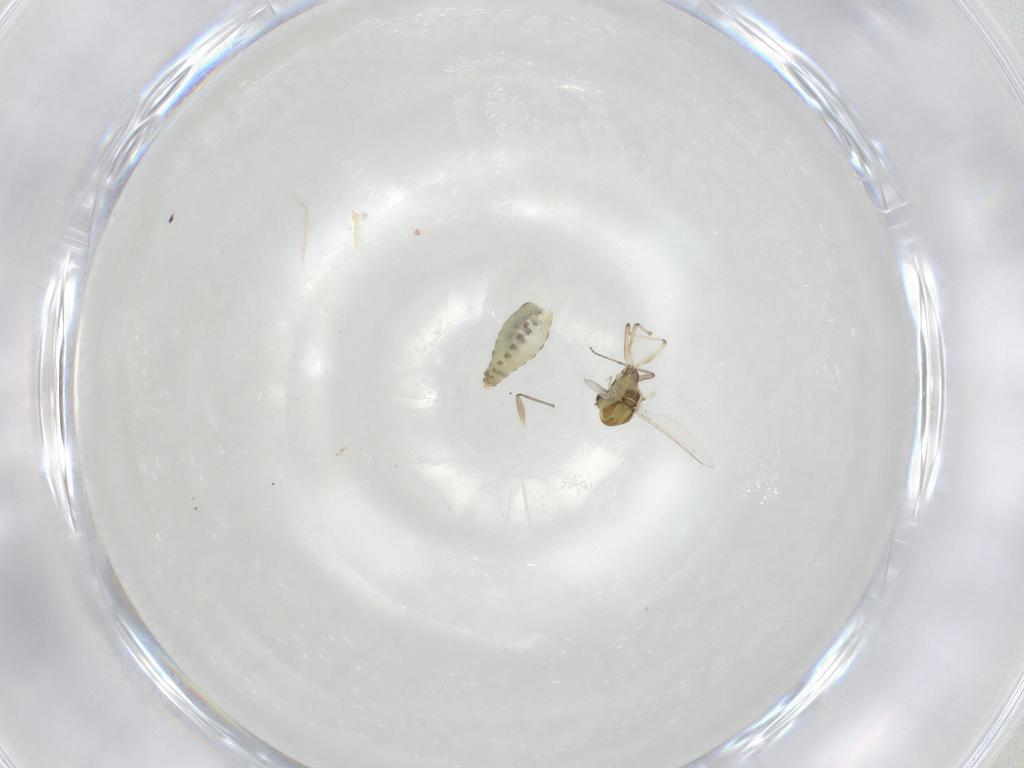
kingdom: Animalia
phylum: Arthropoda
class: Insecta
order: Diptera
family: Chironomidae
